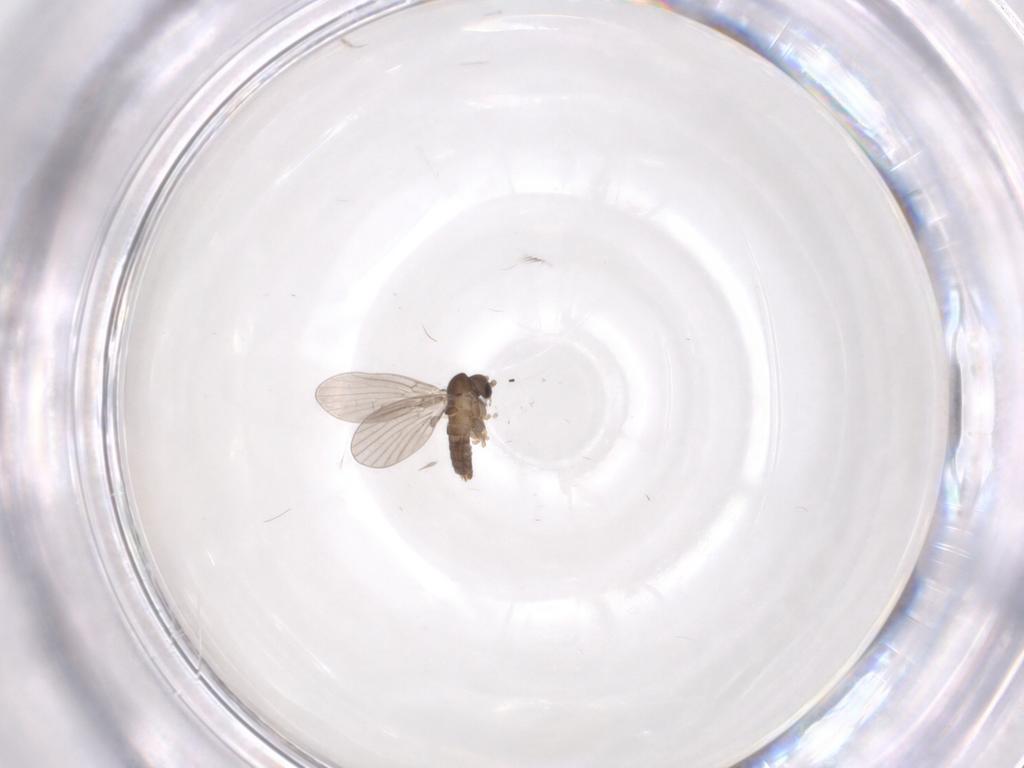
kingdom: Animalia
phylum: Arthropoda
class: Insecta
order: Diptera
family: Psychodidae
